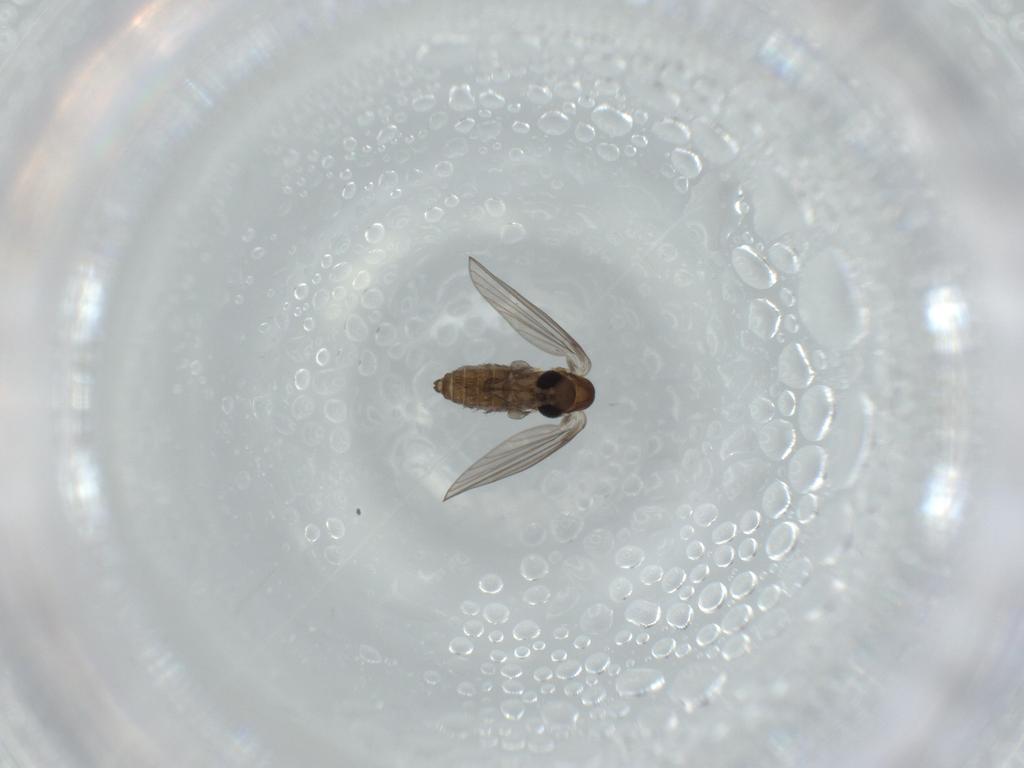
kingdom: Animalia
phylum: Arthropoda
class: Insecta
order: Diptera
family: Psychodidae
